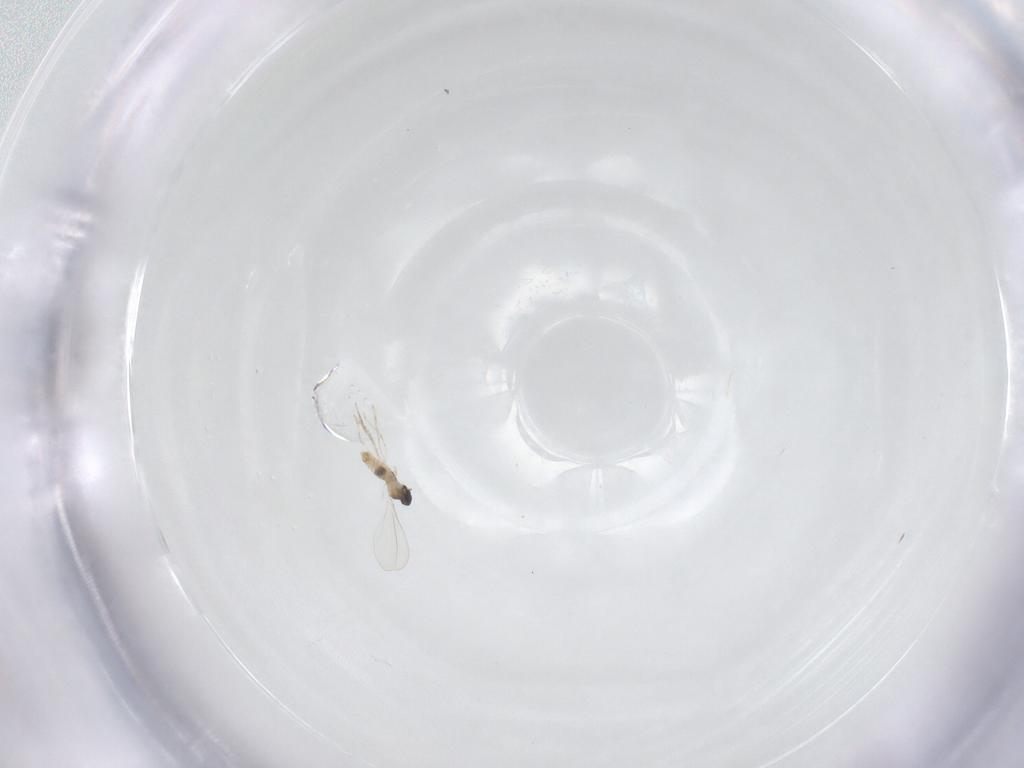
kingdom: Animalia
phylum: Arthropoda
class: Insecta
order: Diptera
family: Cecidomyiidae
